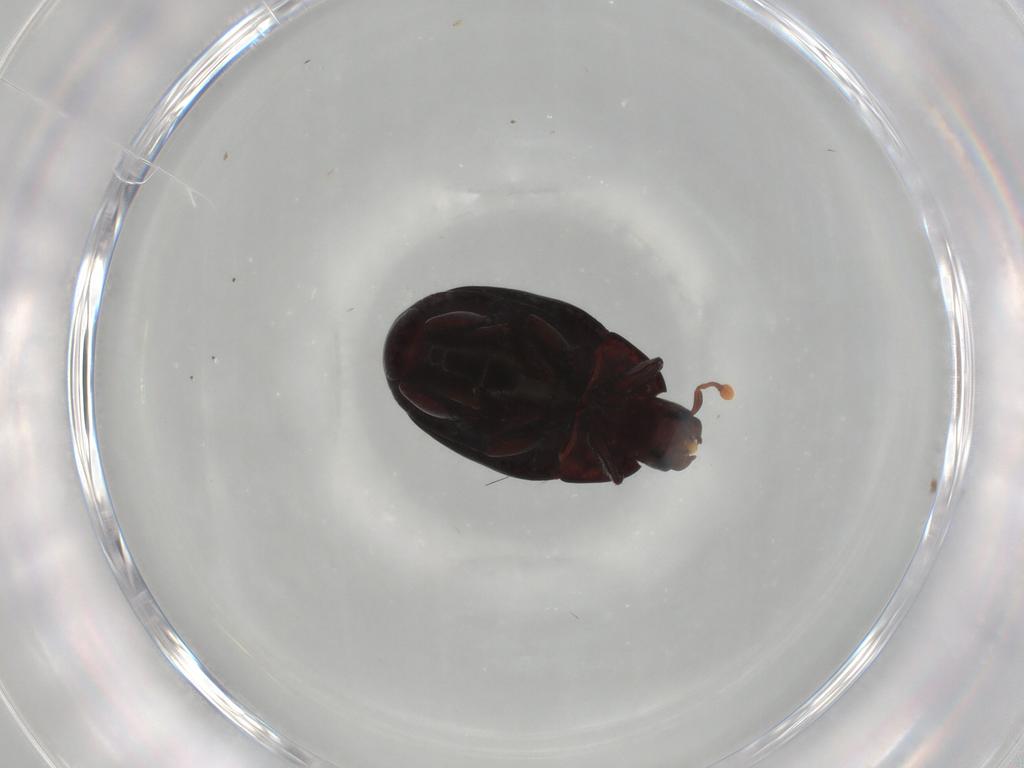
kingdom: Animalia
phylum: Arthropoda
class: Insecta
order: Coleoptera
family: Histeridae
